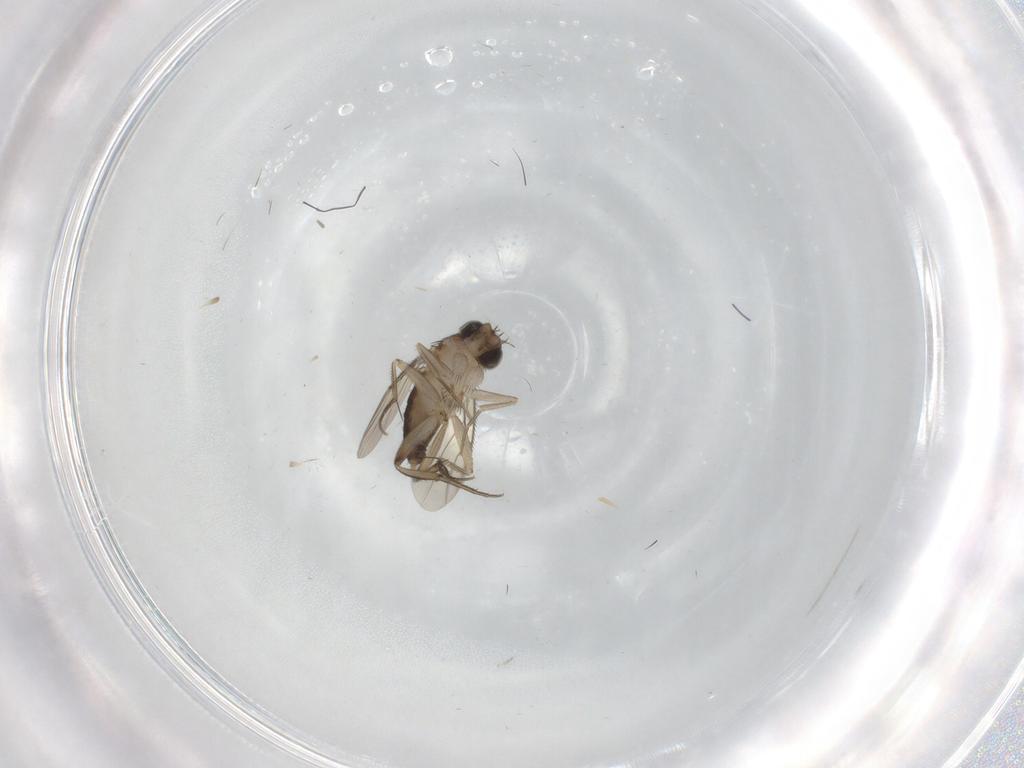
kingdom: Animalia
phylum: Arthropoda
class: Insecta
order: Diptera
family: Phoridae
